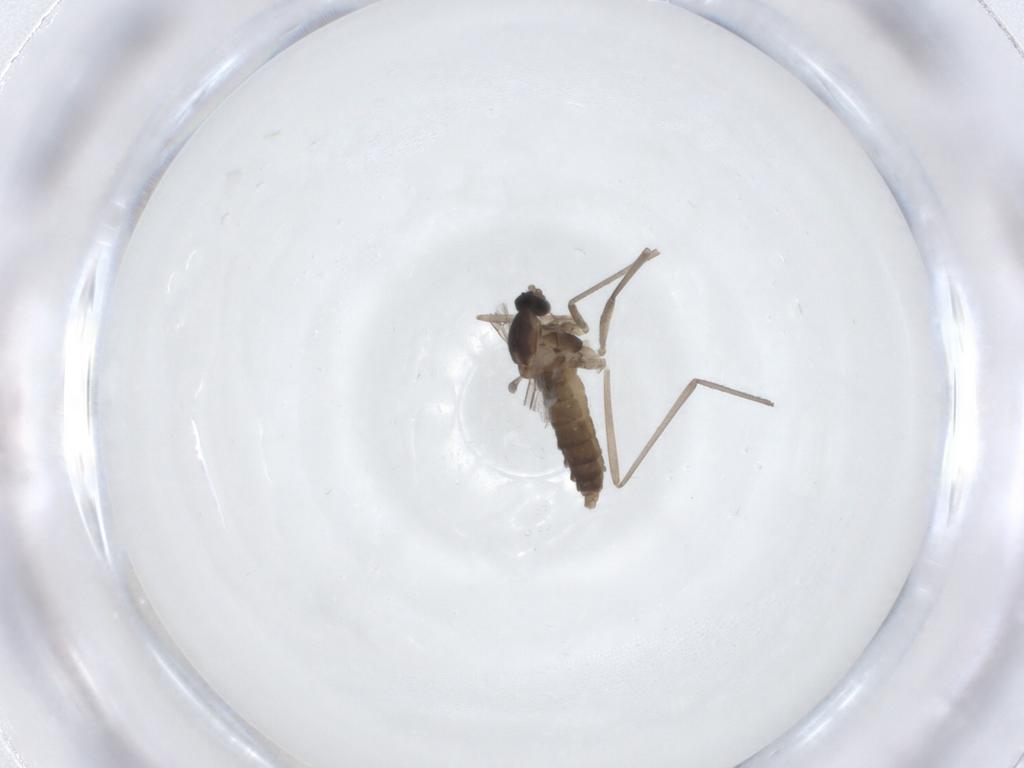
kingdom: Animalia
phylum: Arthropoda
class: Insecta
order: Diptera
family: Cecidomyiidae
